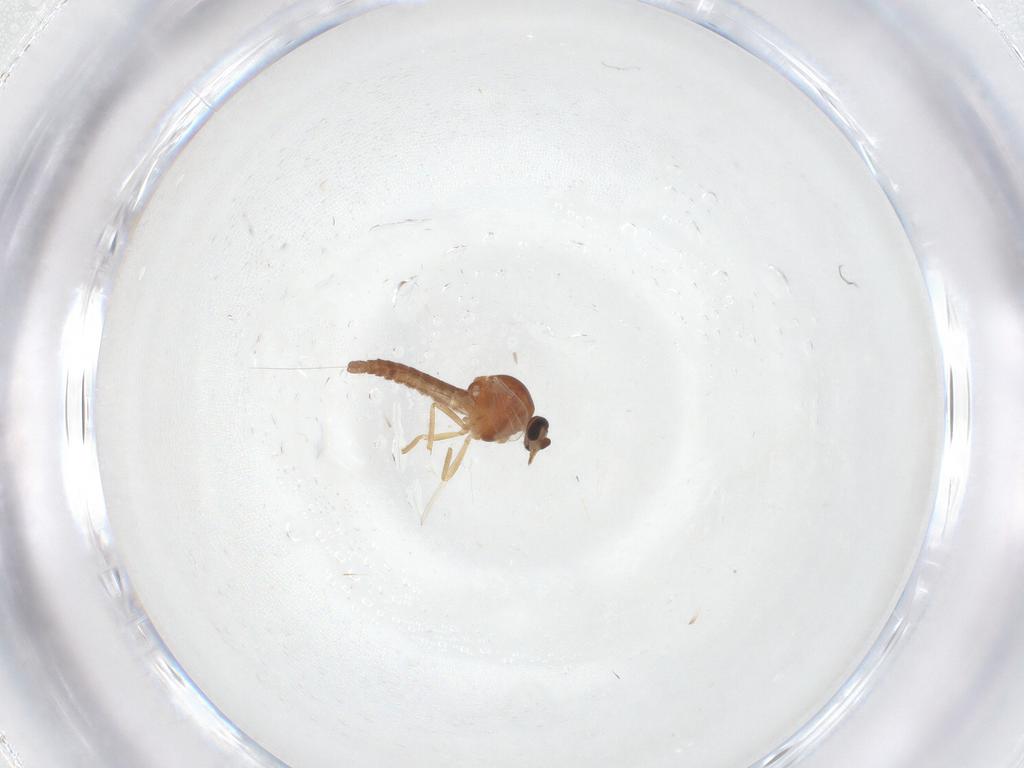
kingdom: Animalia
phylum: Arthropoda
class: Insecta
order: Diptera
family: Ceratopogonidae
